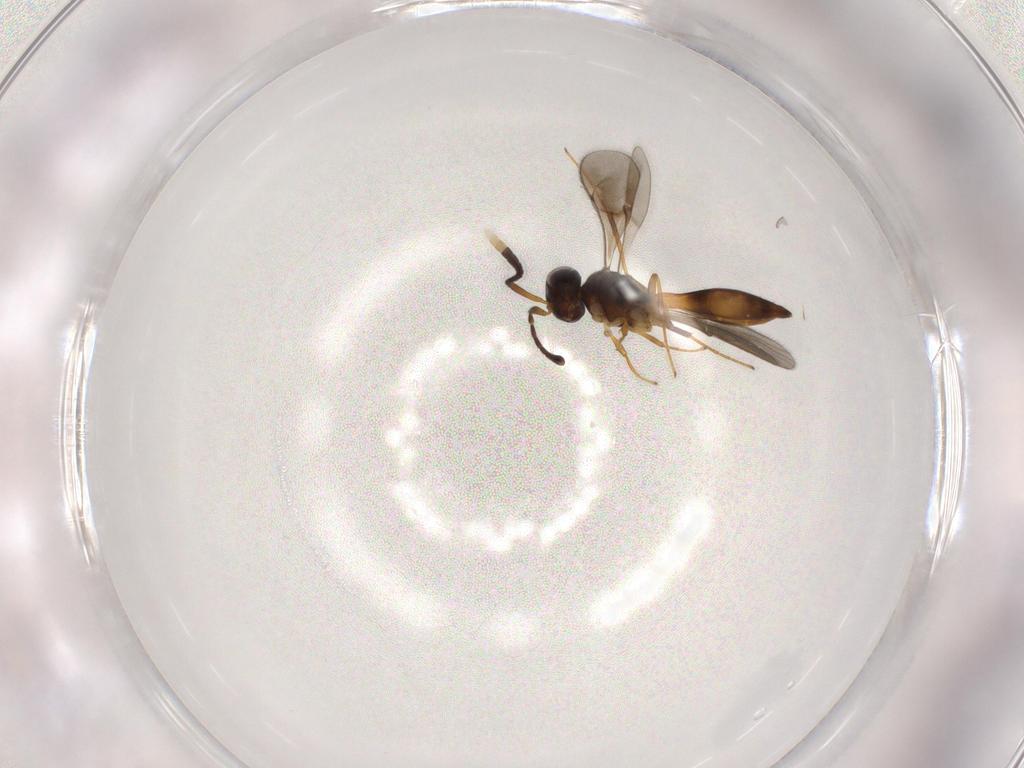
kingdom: Animalia
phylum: Arthropoda
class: Insecta
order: Hymenoptera
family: Scelionidae
